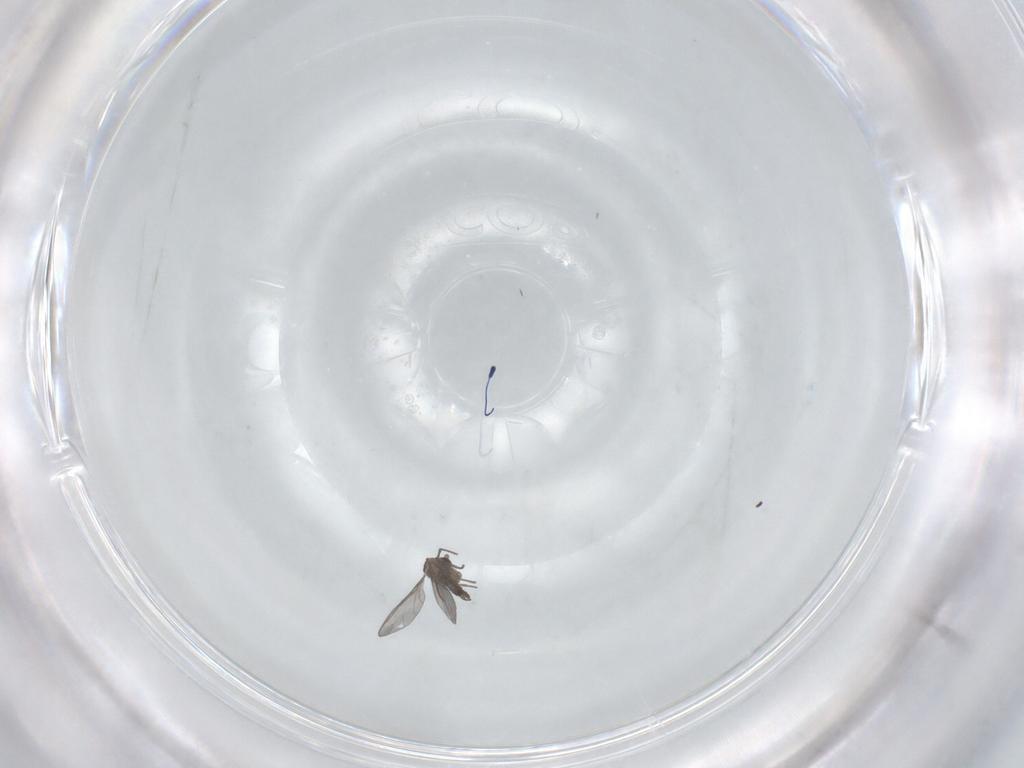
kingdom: Animalia
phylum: Arthropoda
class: Insecta
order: Diptera
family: Sciaridae
